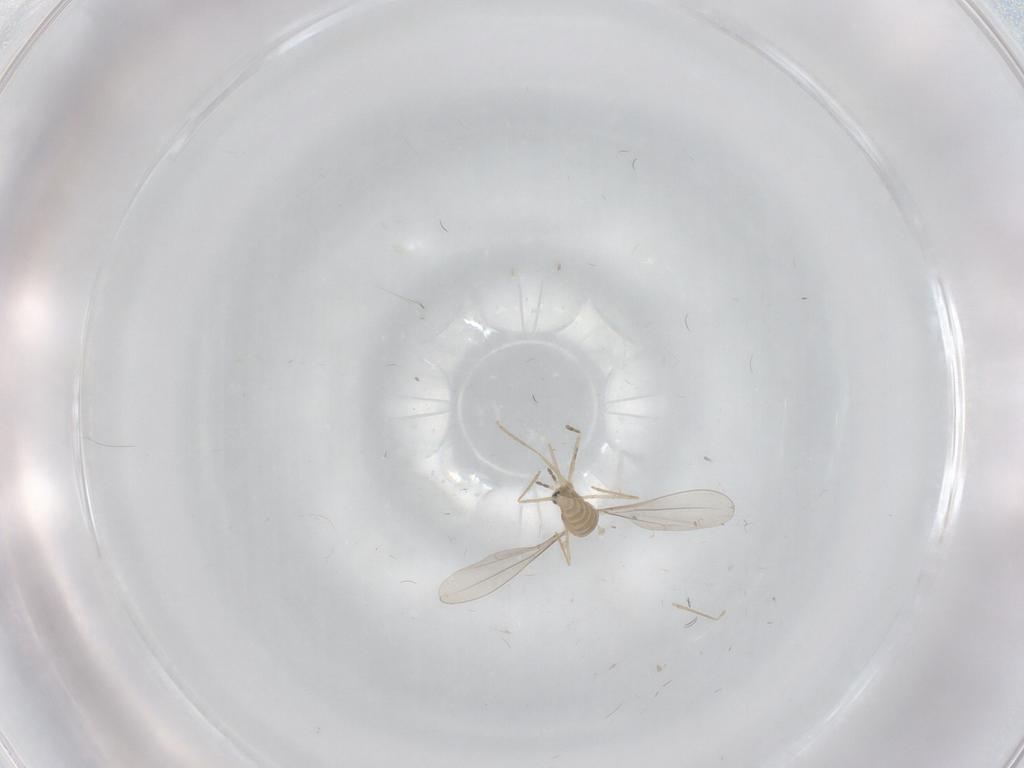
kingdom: Animalia
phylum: Arthropoda
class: Insecta
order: Diptera
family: Cecidomyiidae
